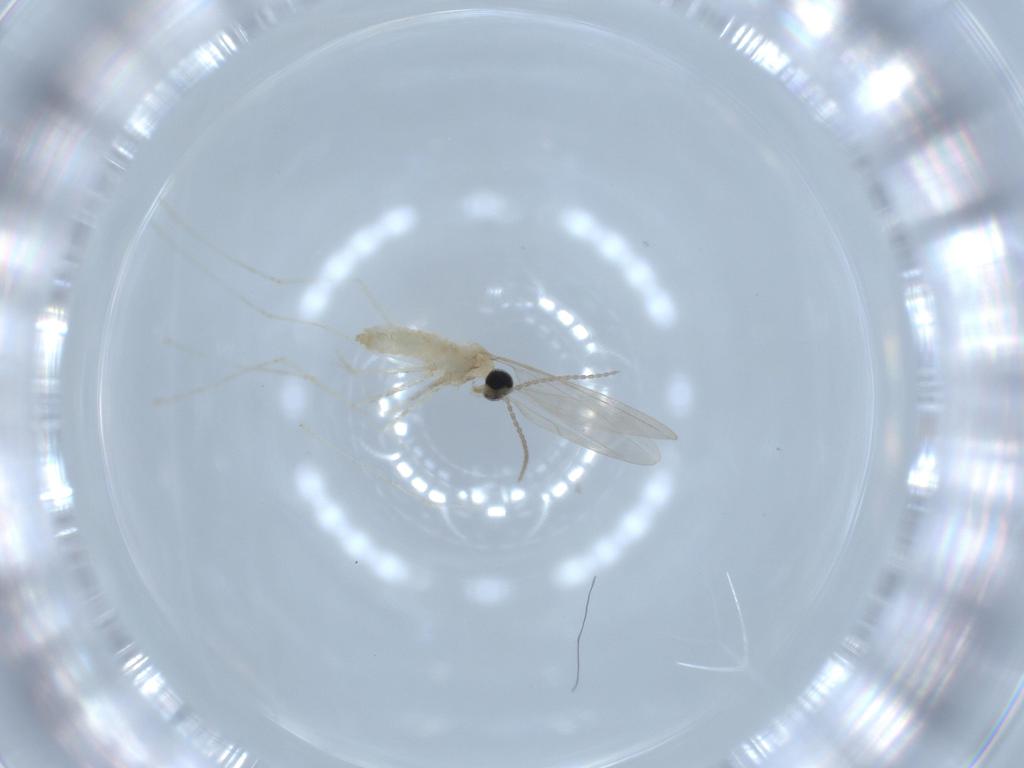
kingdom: Animalia
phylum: Arthropoda
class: Insecta
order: Diptera
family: Cecidomyiidae
